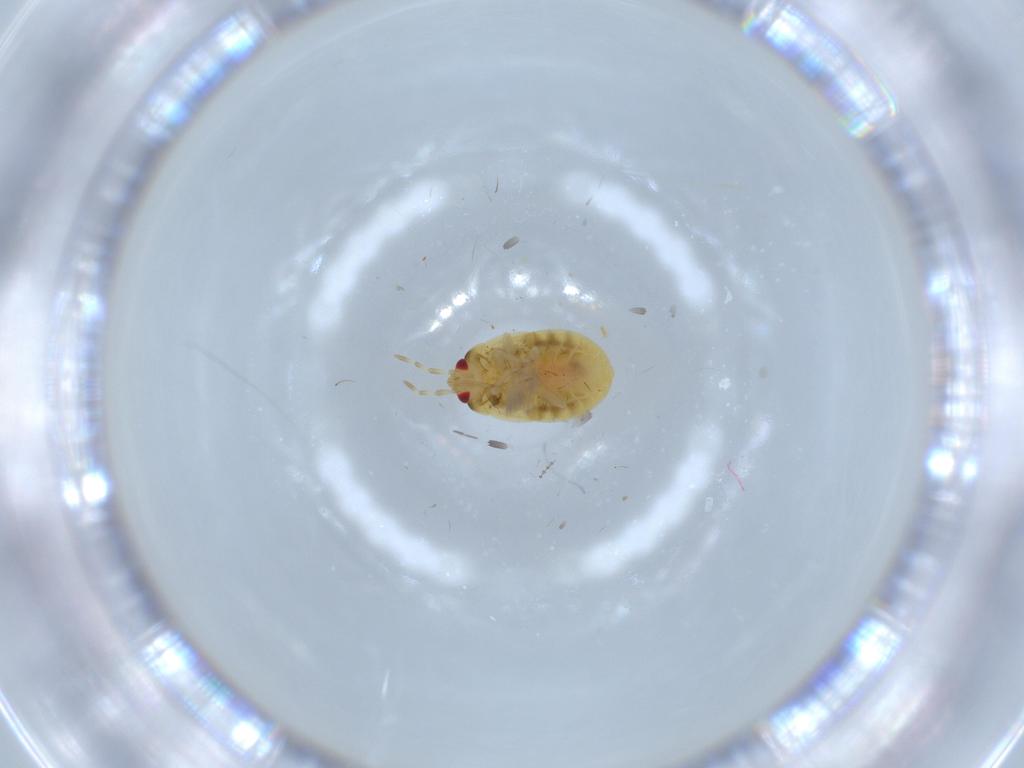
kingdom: Animalia
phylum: Arthropoda
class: Insecta
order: Hemiptera
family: Anthocoridae
